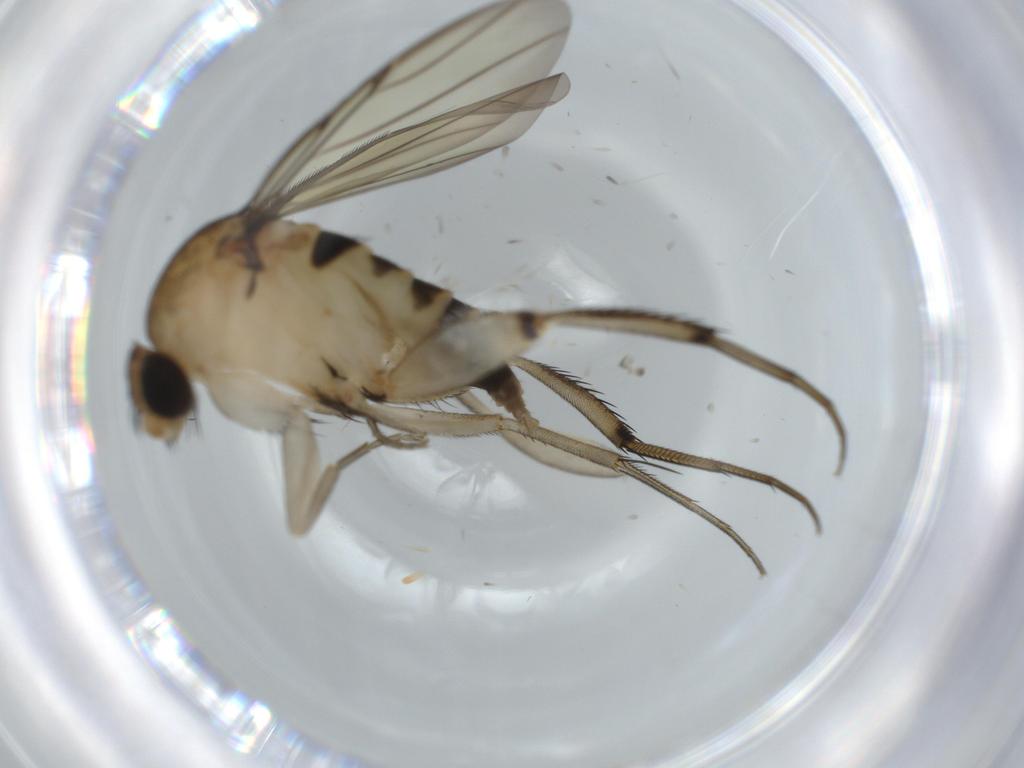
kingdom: Animalia
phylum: Arthropoda
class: Insecta
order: Diptera
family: Phoridae
